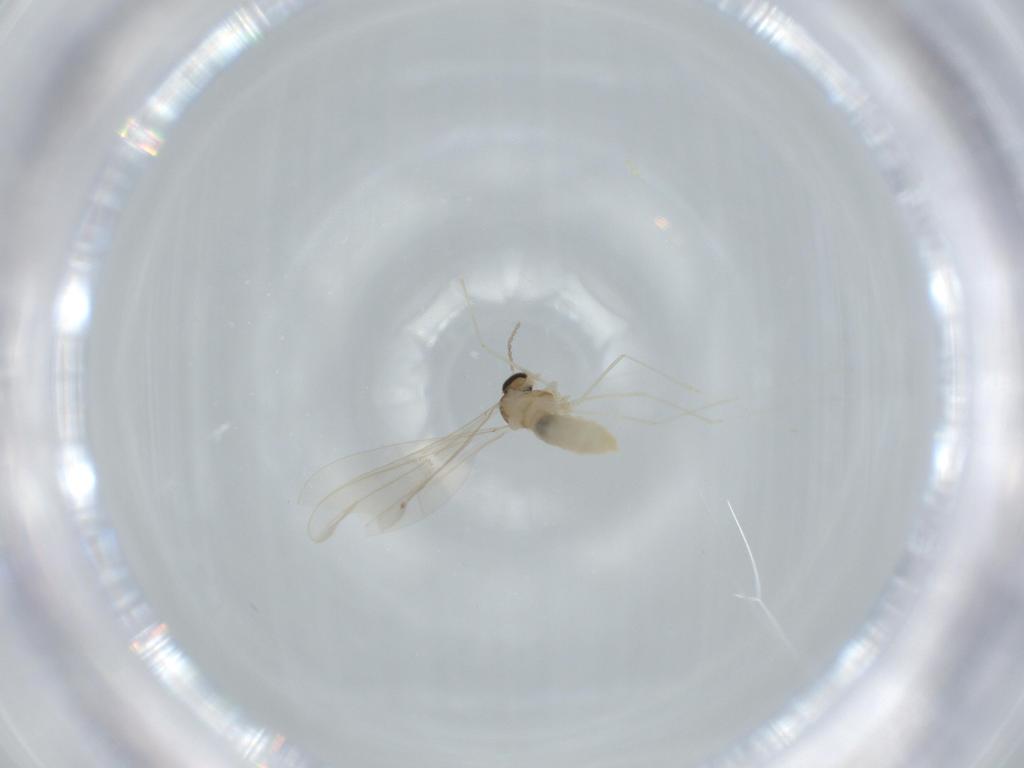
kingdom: Animalia
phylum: Arthropoda
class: Insecta
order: Diptera
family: Cecidomyiidae
